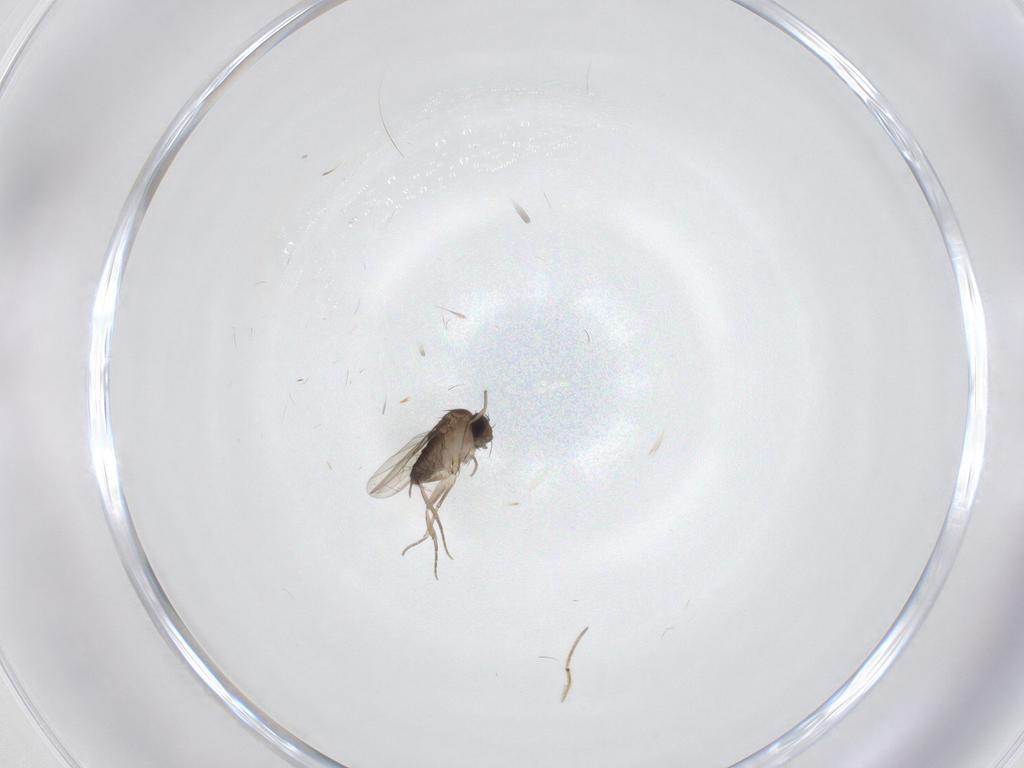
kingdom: Animalia
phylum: Arthropoda
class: Insecta
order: Diptera
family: Phoridae
